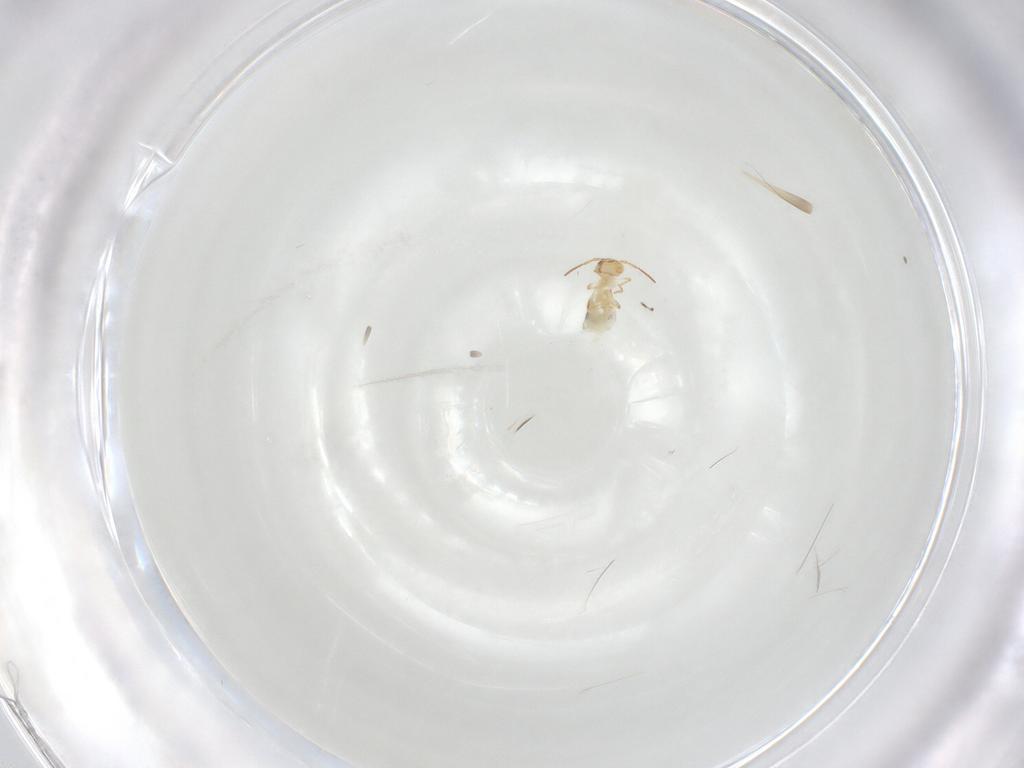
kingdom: Animalia
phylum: Arthropoda
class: Collembola
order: Symphypleona
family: Bourletiellidae
